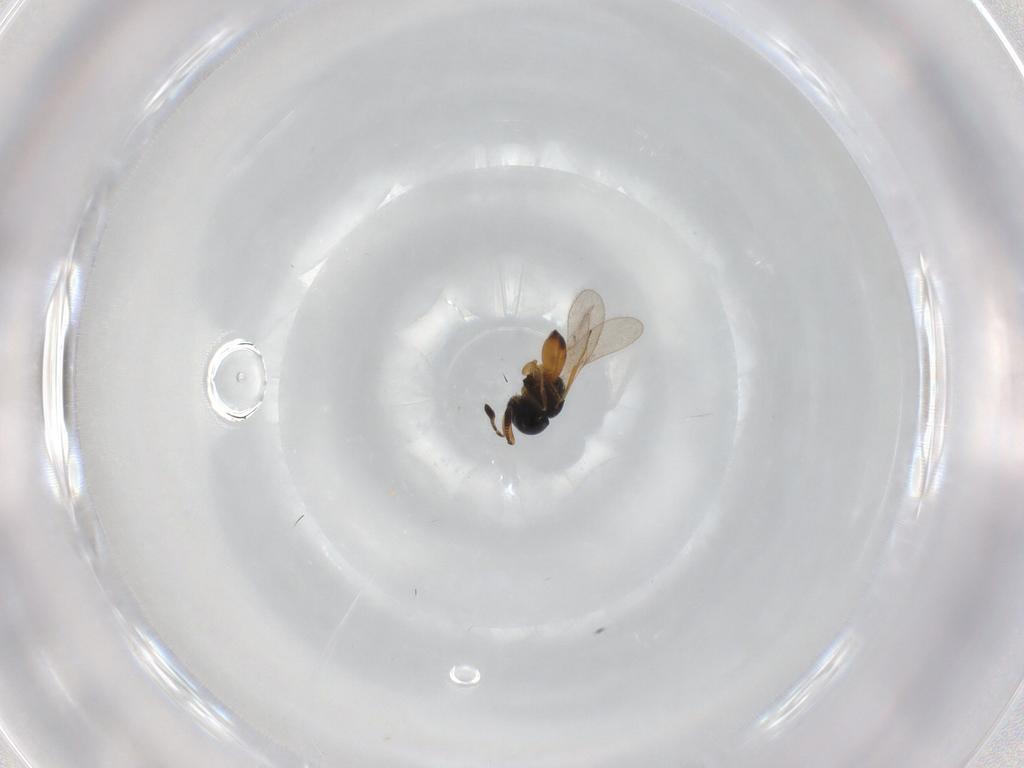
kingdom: Animalia
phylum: Arthropoda
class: Insecta
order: Hymenoptera
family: Scelionidae
